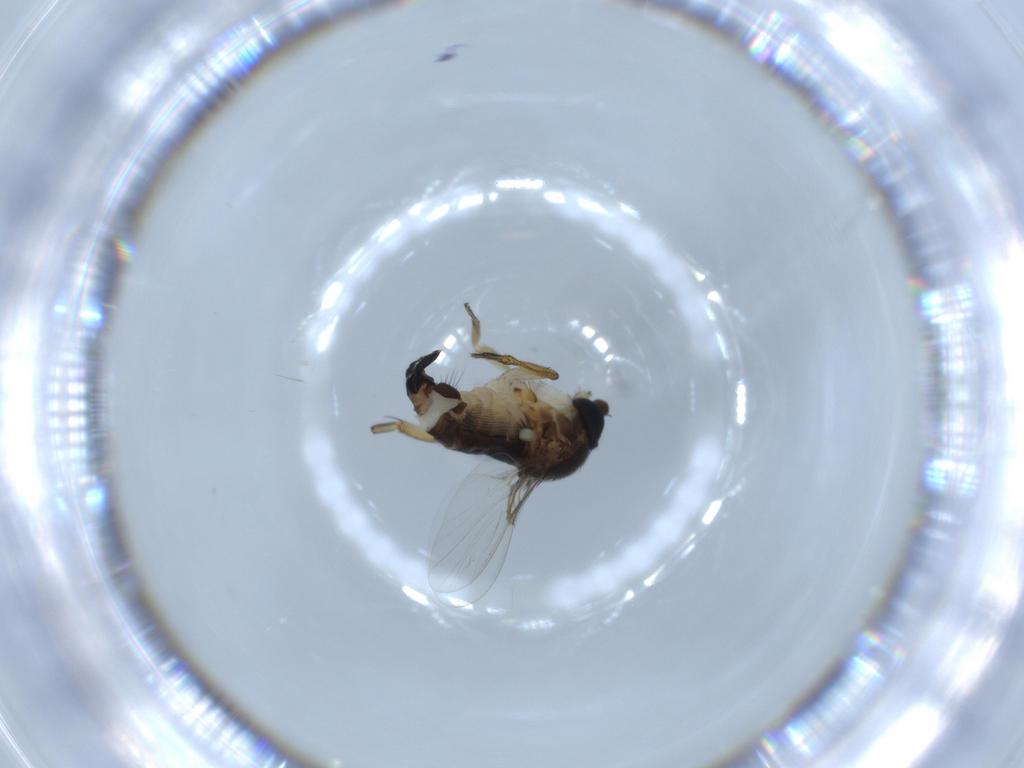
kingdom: Animalia
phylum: Arthropoda
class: Insecta
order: Diptera
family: Phoridae
